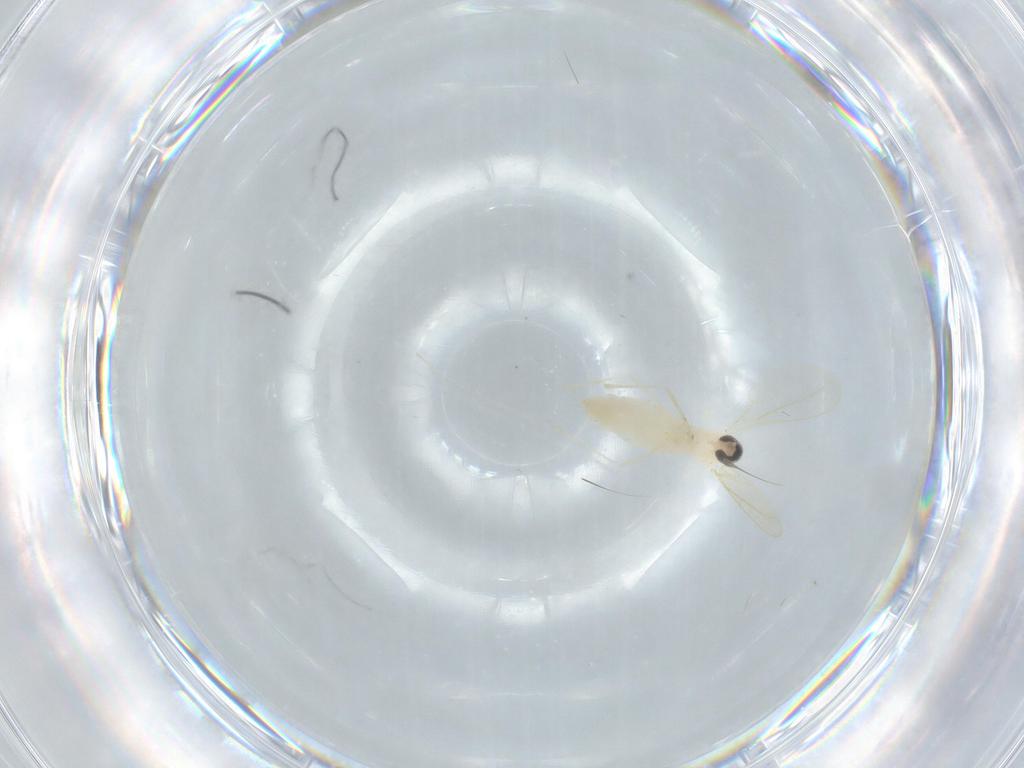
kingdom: Animalia
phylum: Arthropoda
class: Insecta
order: Diptera
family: Cecidomyiidae
